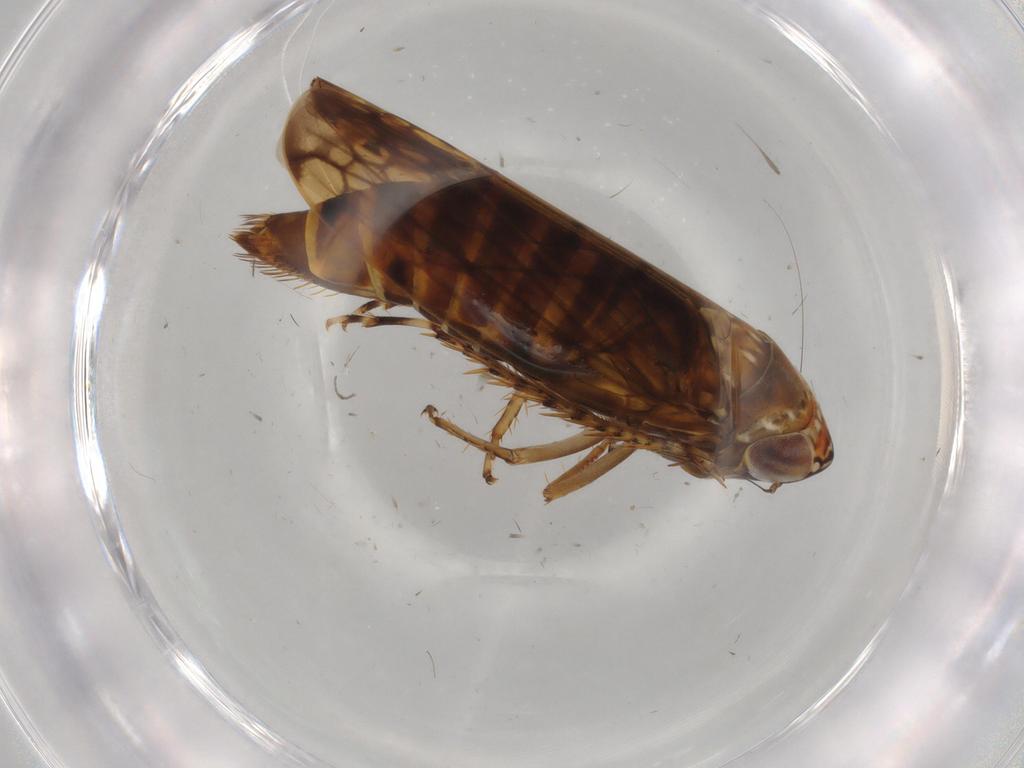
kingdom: Animalia
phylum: Arthropoda
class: Insecta
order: Hemiptera
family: Cicadellidae
